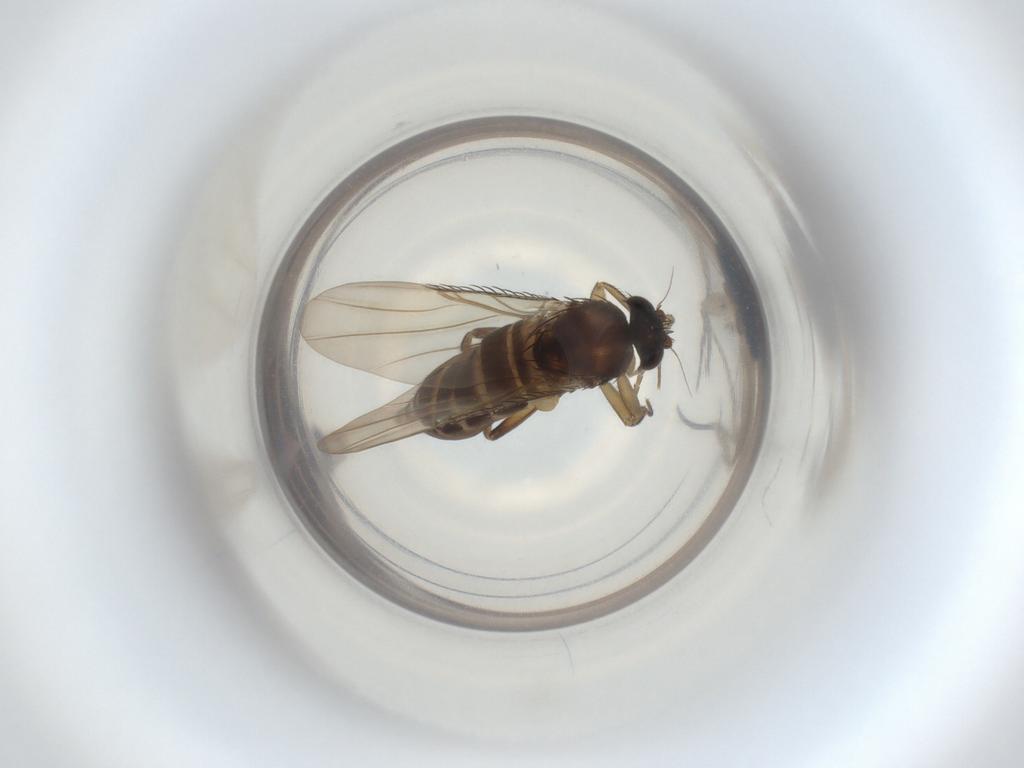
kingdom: Animalia
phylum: Arthropoda
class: Insecta
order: Diptera
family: Phoridae
